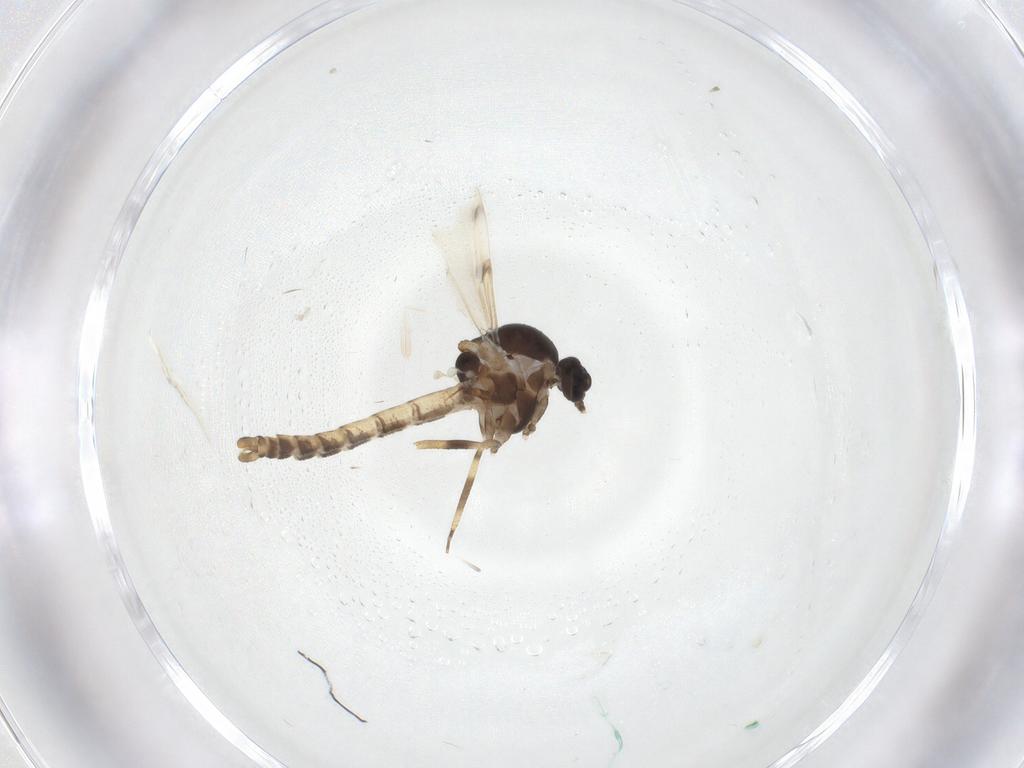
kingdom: Animalia
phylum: Arthropoda
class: Insecta
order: Diptera
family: Ceratopogonidae
